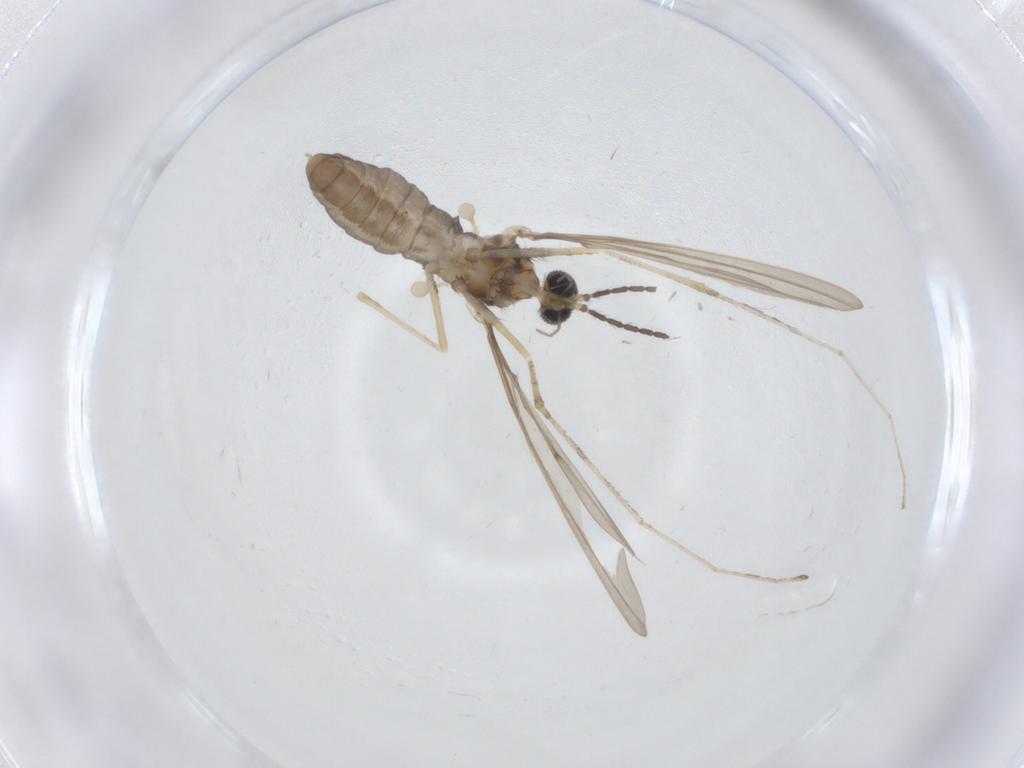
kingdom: Animalia
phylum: Arthropoda
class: Insecta
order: Diptera
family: Cecidomyiidae
